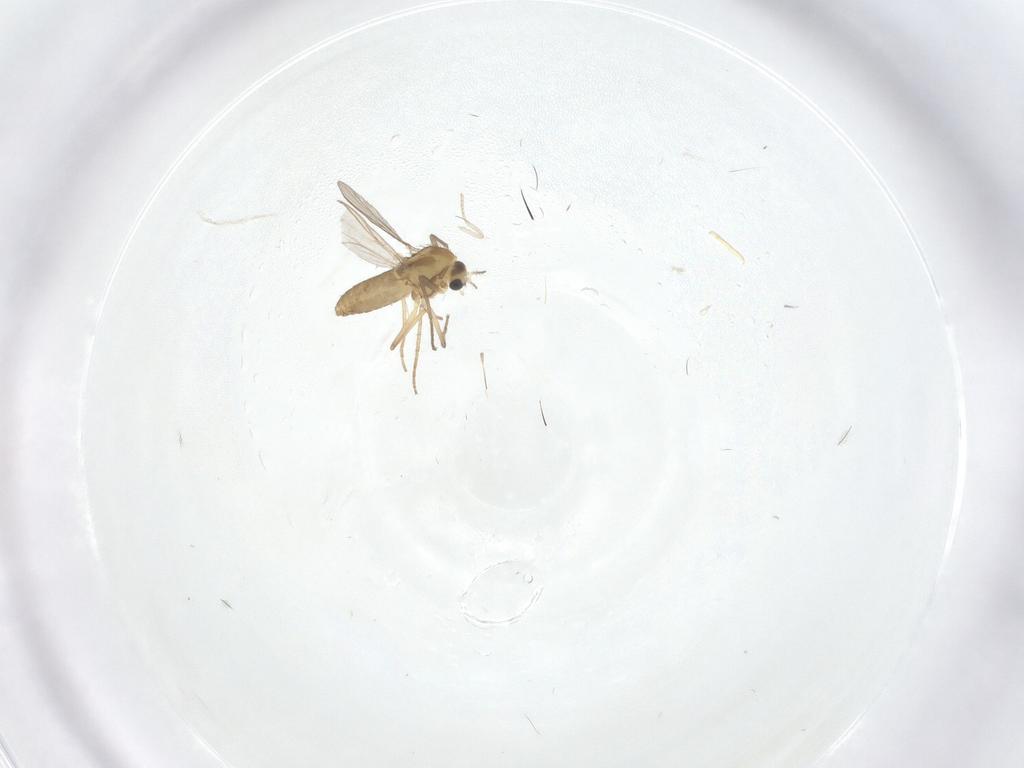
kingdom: Animalia
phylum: Arthropoda
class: Insecta
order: Diptera
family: Chironomidae
